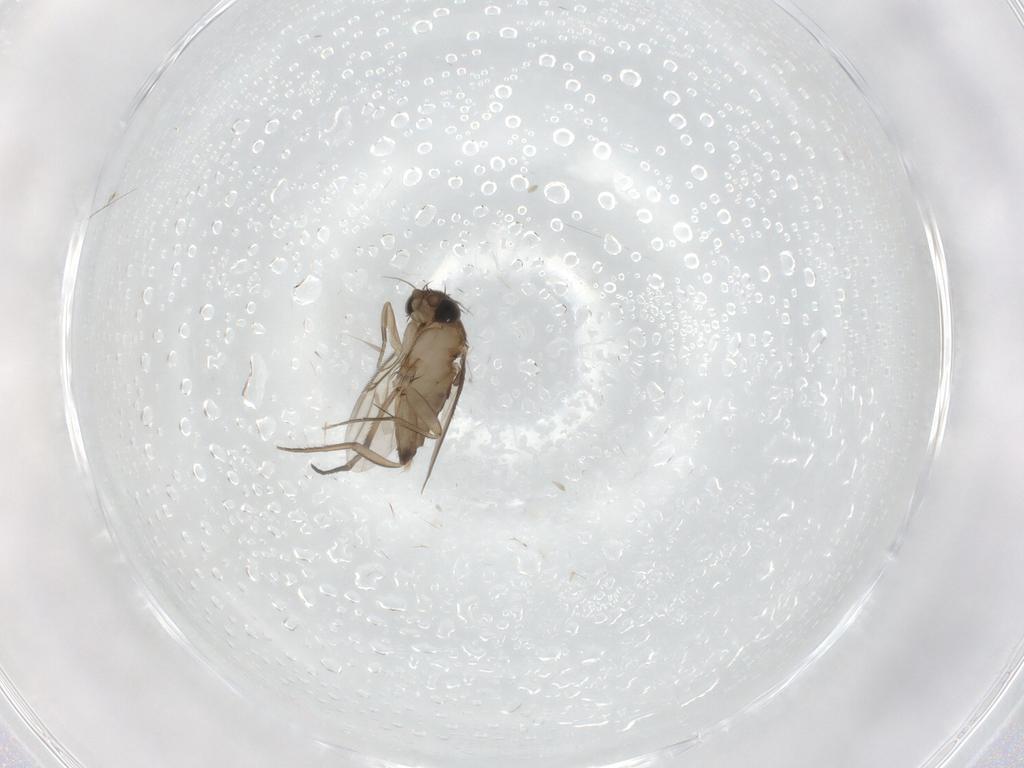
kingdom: Animalia
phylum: Arthropoda
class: Insecta
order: Diptera
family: Phoridae
